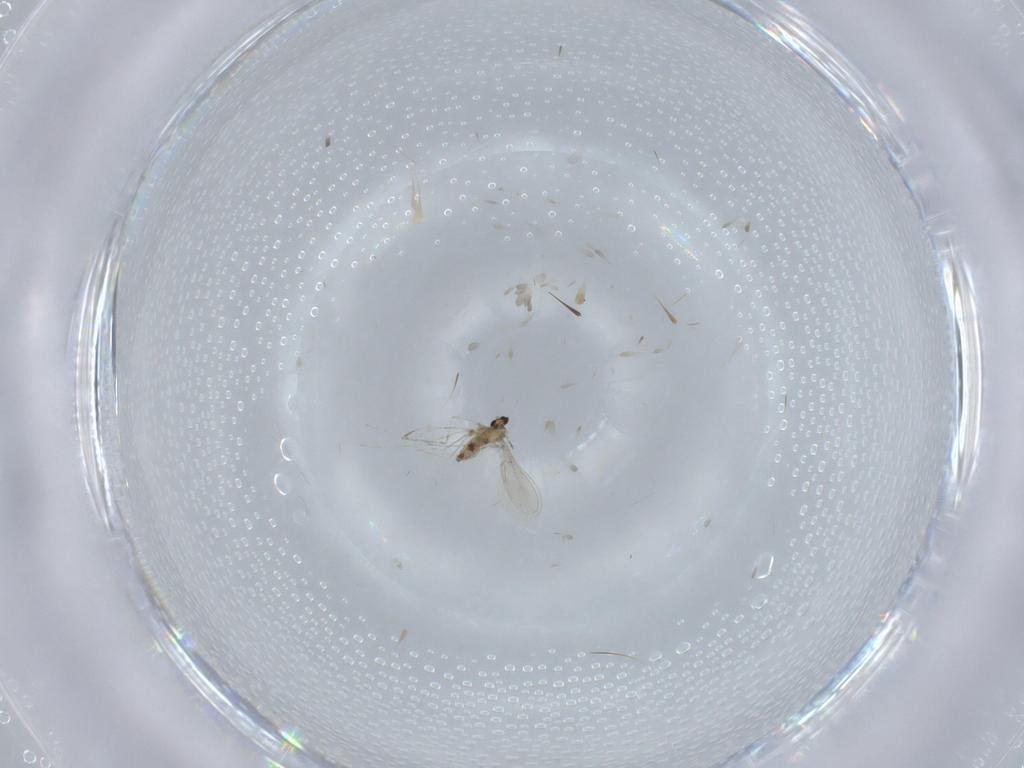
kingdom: Animalia
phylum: Arthropoda
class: Insecta
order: Diptera
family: Cecidomyiidae
